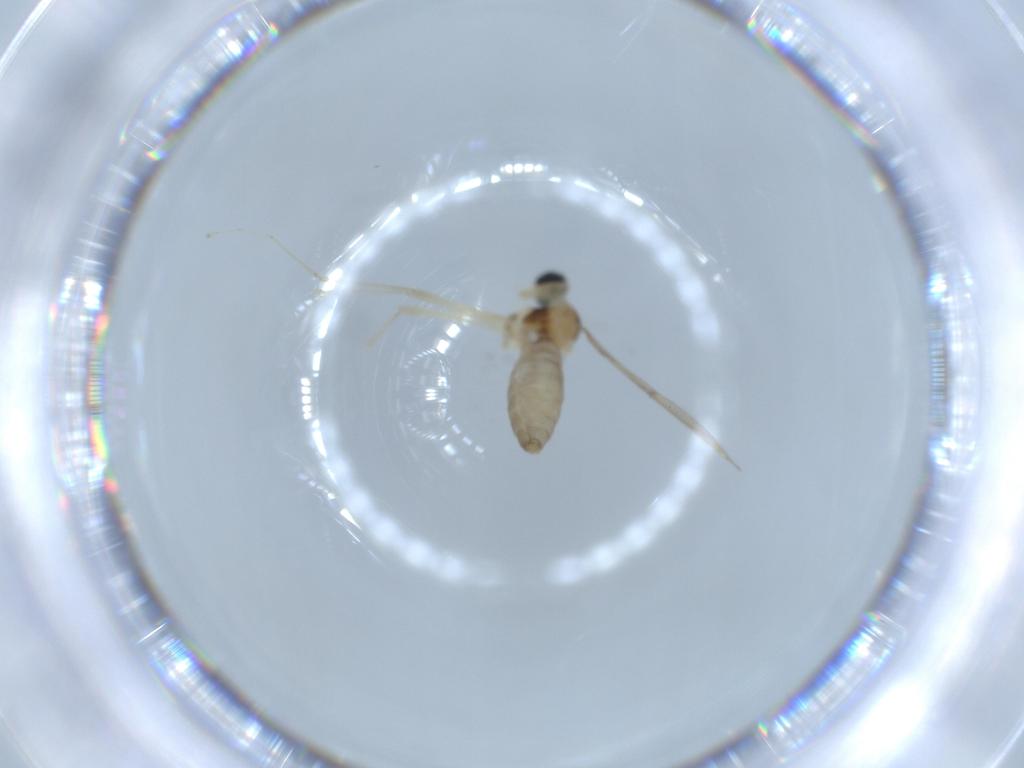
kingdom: Animalia
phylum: Arthropoda
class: Insecta
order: Diptera
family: Cecidomyiidae
